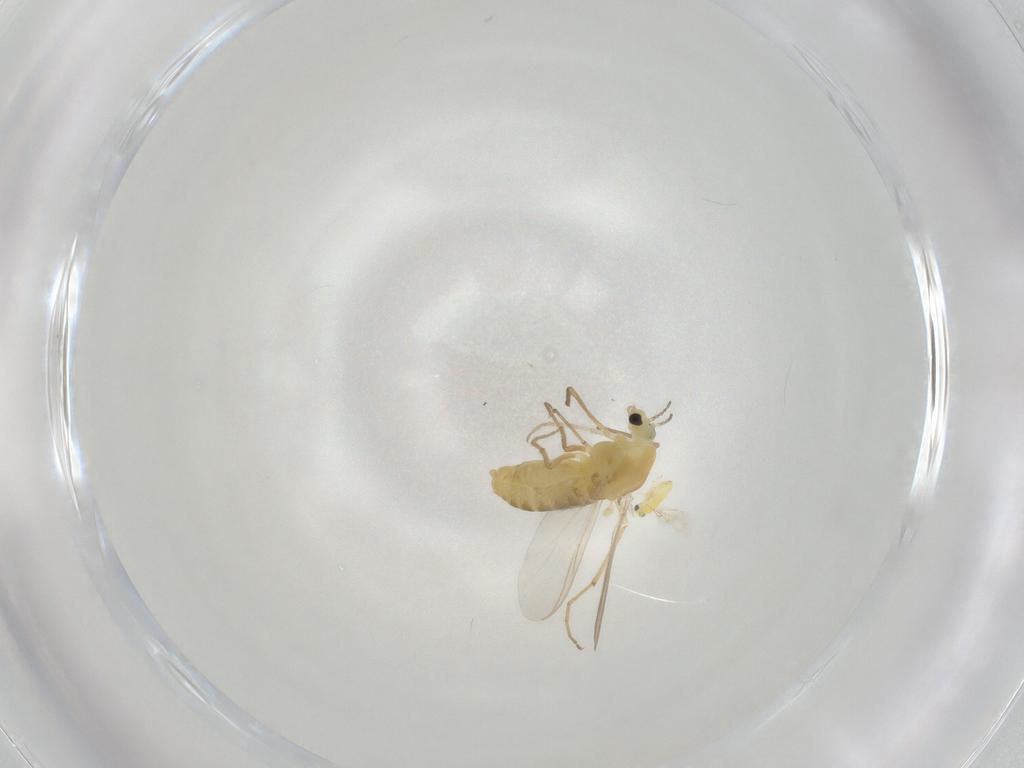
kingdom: Animalia
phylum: Arthropoda
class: Insecta
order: Diptera
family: Chironomidae
